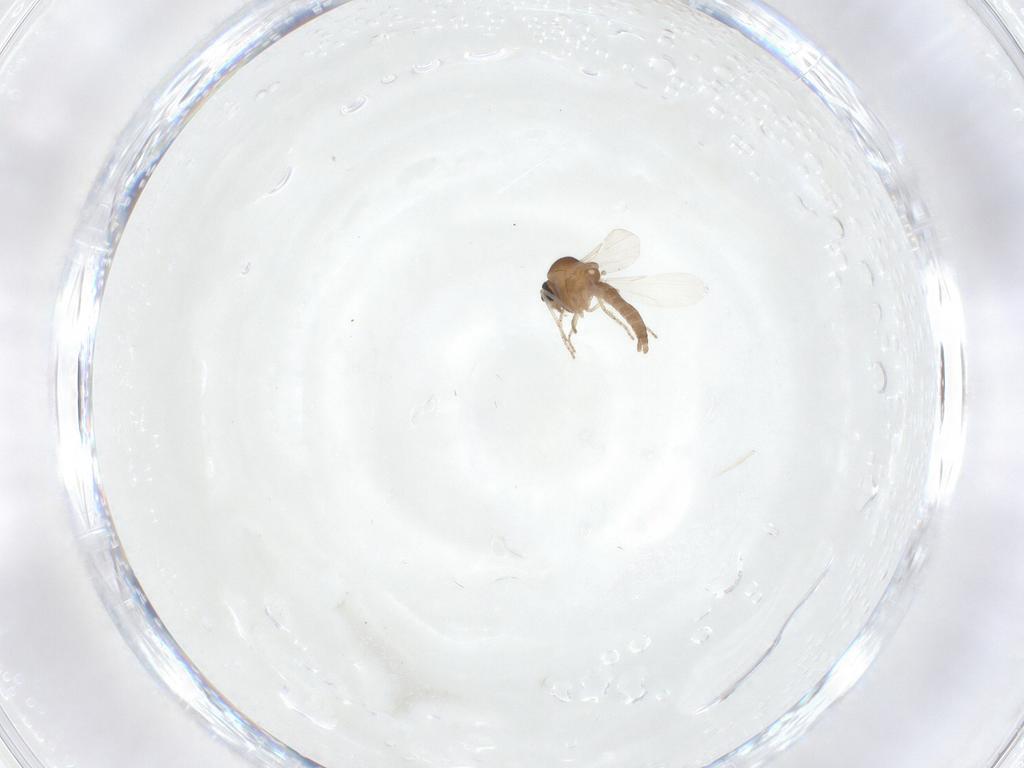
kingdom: Animalia
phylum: Arthropoda
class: Insecta
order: Diptera
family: Ceratopogonidae
